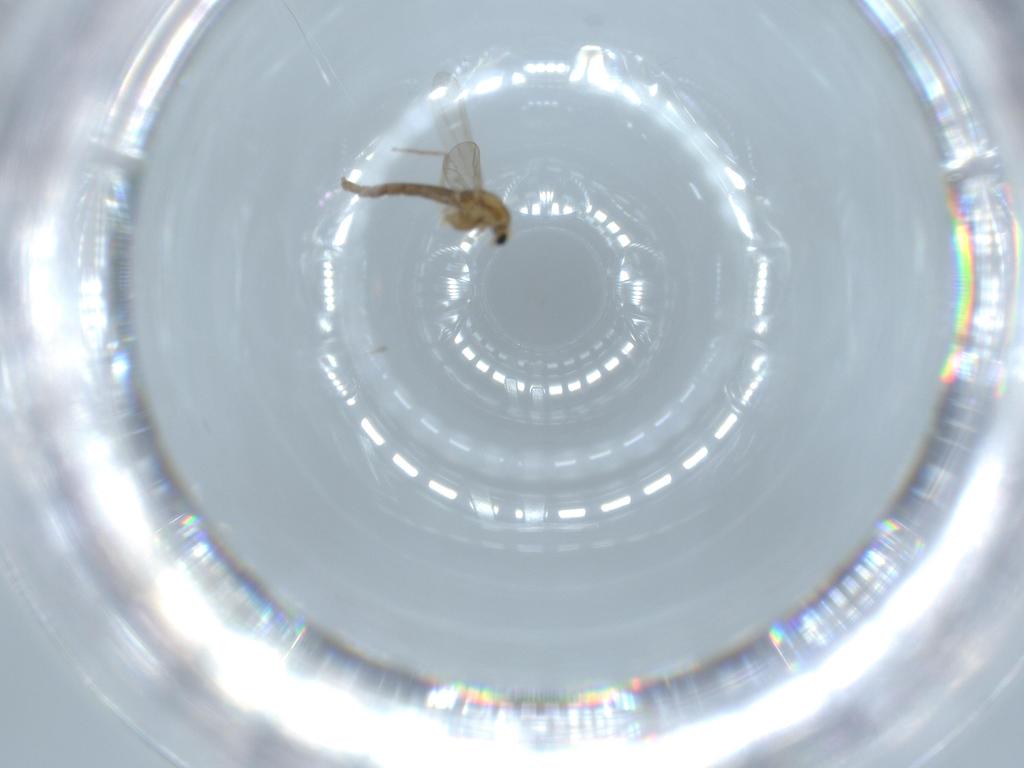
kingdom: Animalia
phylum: Arthropoda
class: Insecta
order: Diptera
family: Chironomidae
